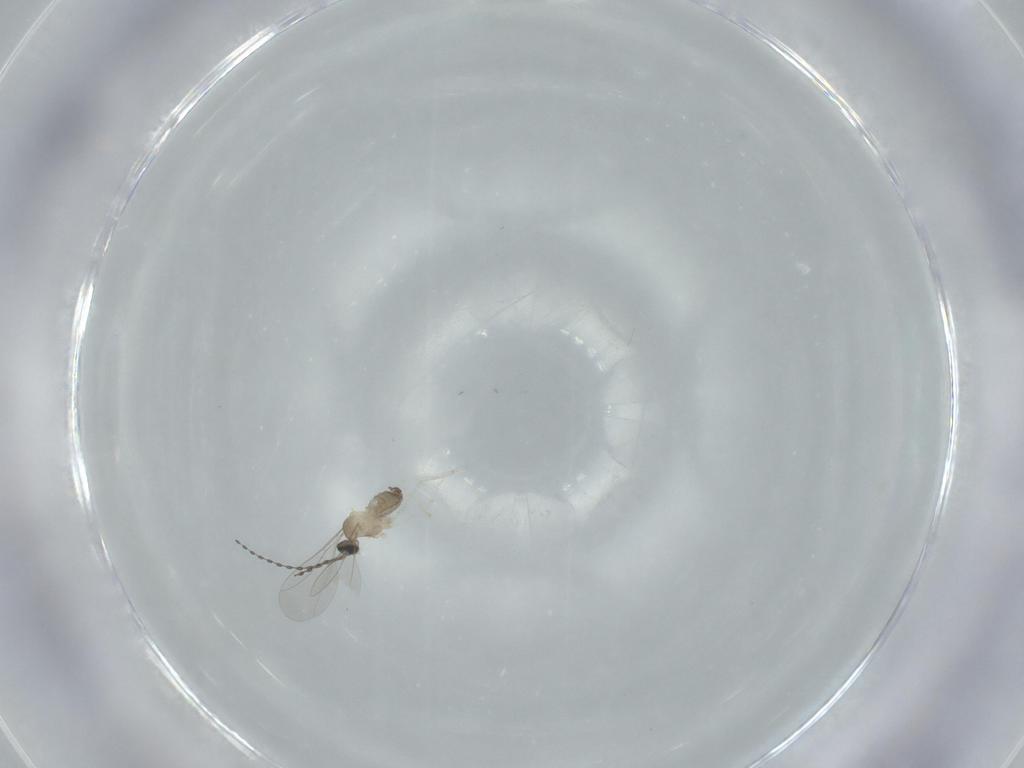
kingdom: Animalia
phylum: Arthropoda
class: Insecta
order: Diptera
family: Cecidomyiidae
